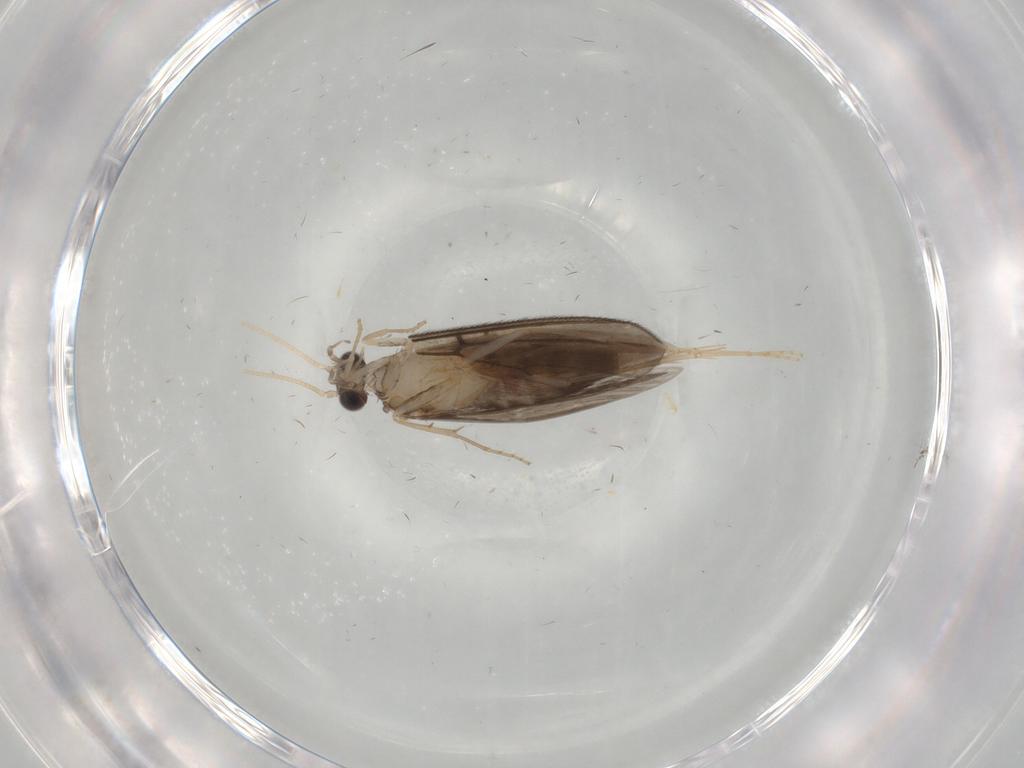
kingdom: Animalia
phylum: Arthropoda
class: Insecta
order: Trichoptera
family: Hydroptilidae
